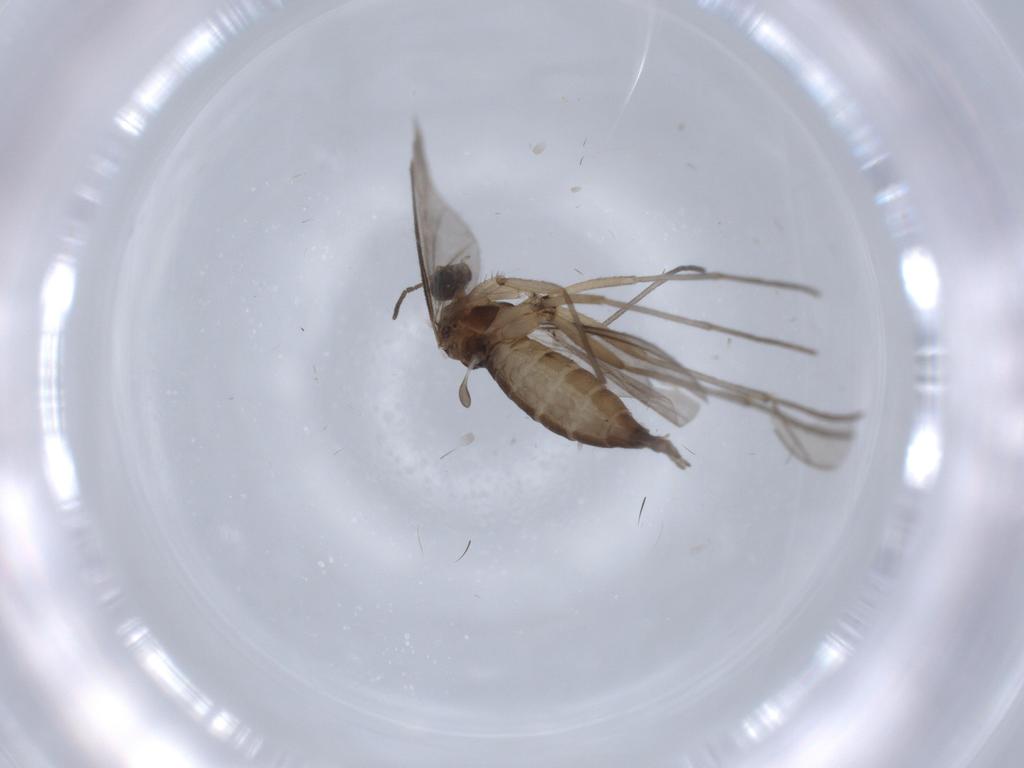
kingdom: Animalia
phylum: Arthropoda
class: Insecta
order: Diptera
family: Sciaridae
